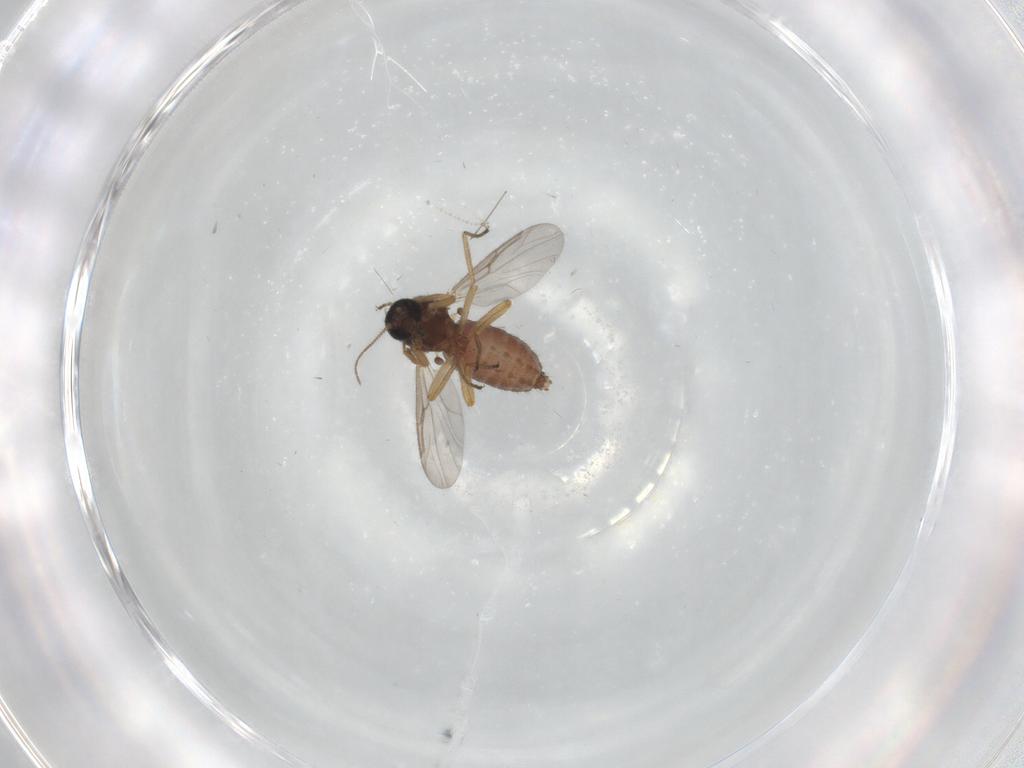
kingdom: Animalia
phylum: Arthropoda
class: Insecta
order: Diptera
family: Ceratopogonidae
